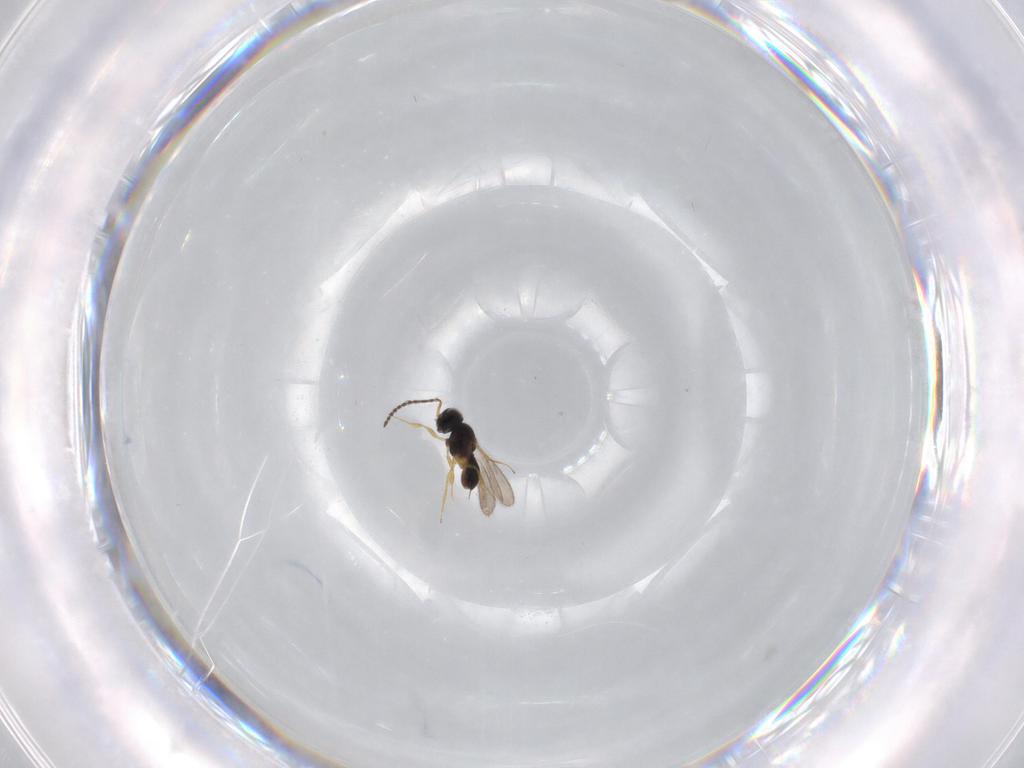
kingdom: Animalia
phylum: Arthropoda
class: Insecta
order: Hymenoptera
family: Scelionidae
